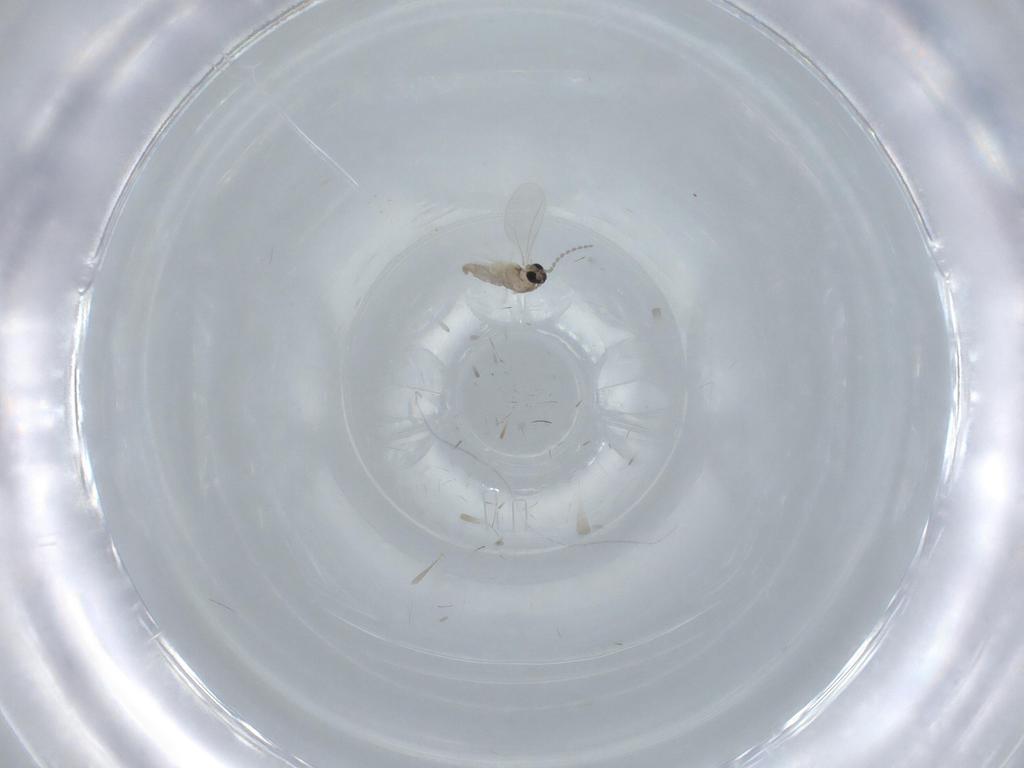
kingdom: Animalia
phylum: Arthropoda
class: Insecta
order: Diptera
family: Cecidomyiidae
